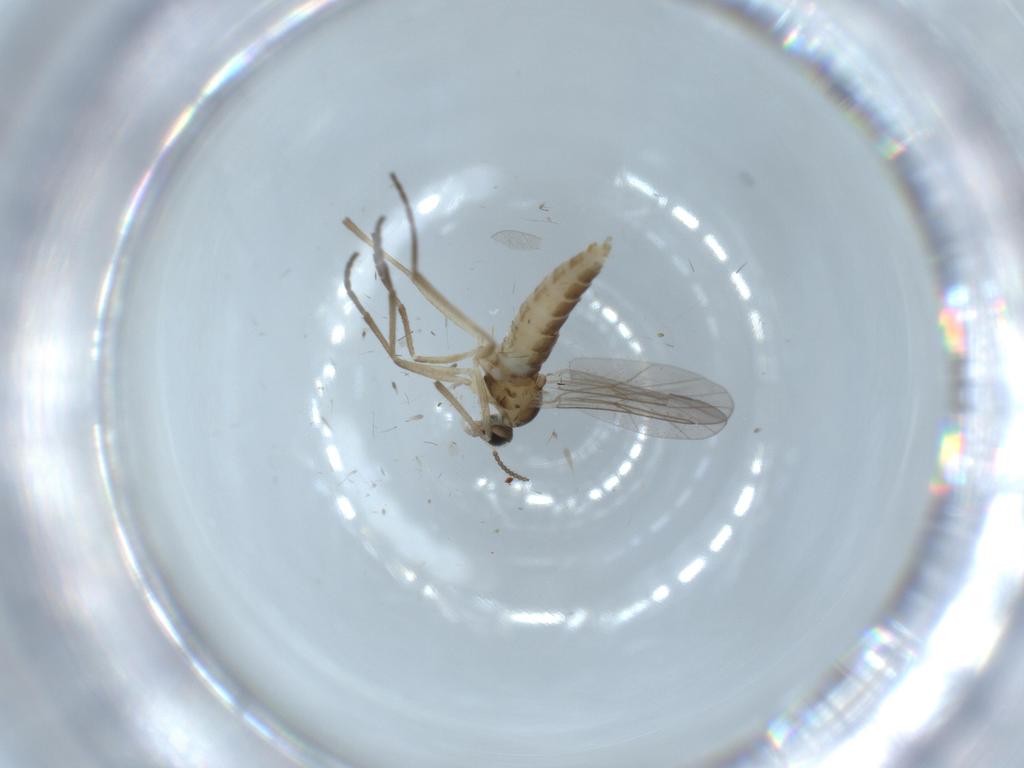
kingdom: Animalia
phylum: Arthropoda
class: Insecta
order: Diptera
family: Cecidomyiidae
